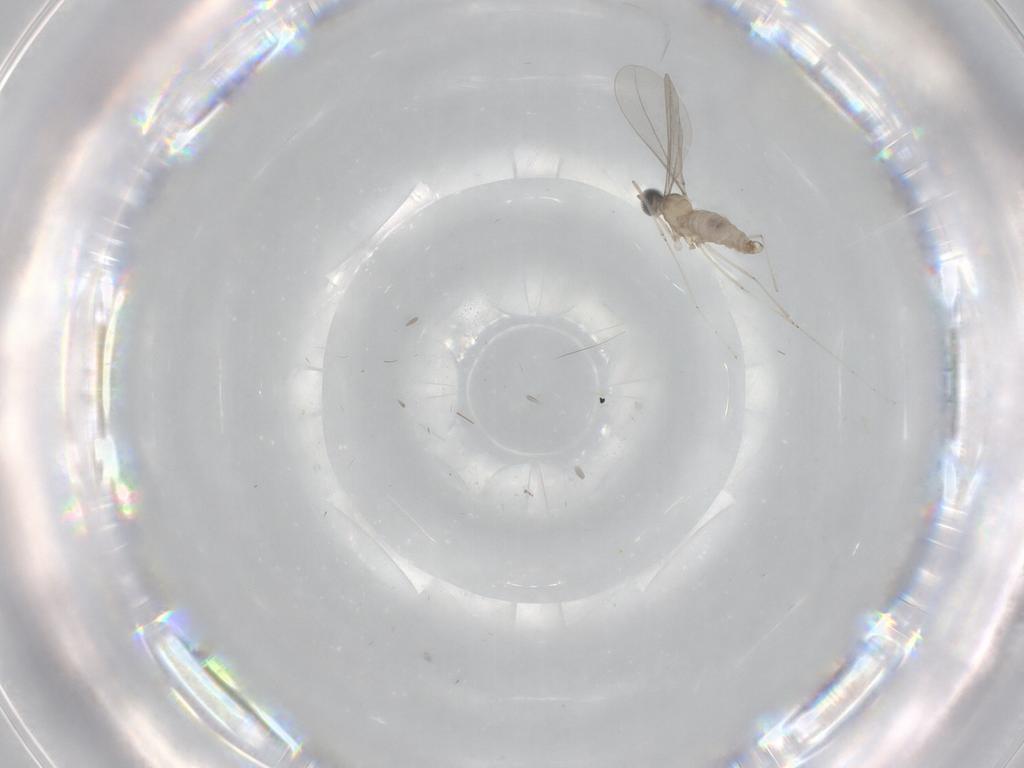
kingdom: Animalia
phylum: Arthropoda
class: Insecta
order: Diptera
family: Cecidomyiidae
